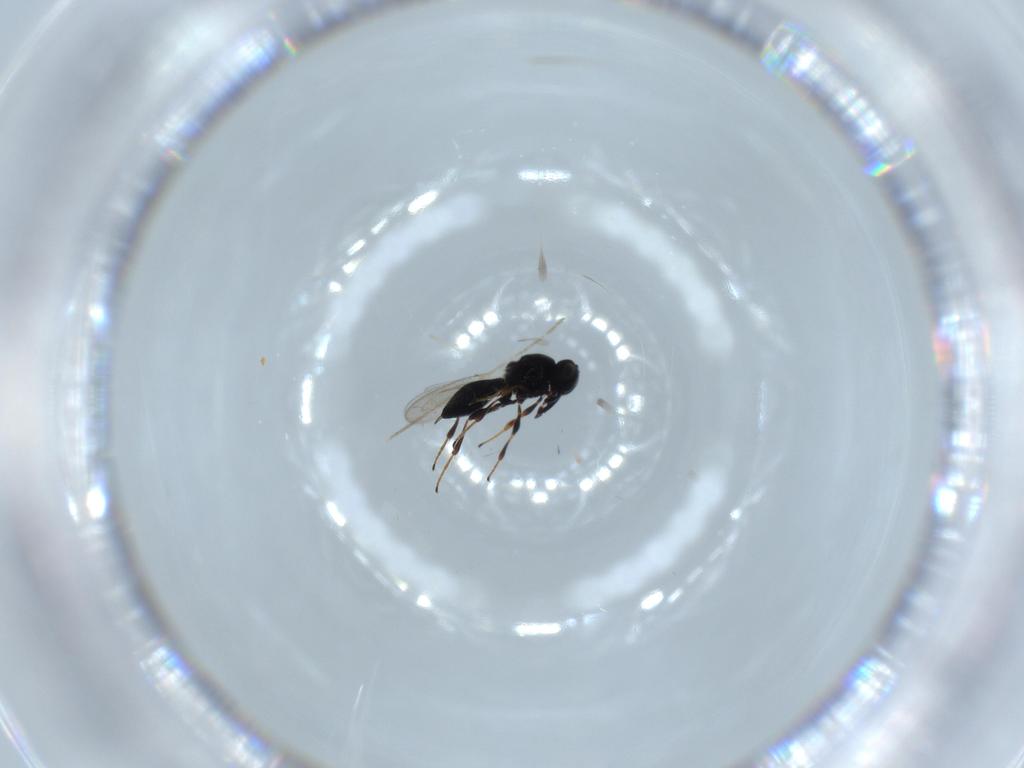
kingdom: Animalia
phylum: Arthropoda
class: Insecta
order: Hymenoptera
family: Platygastridae
